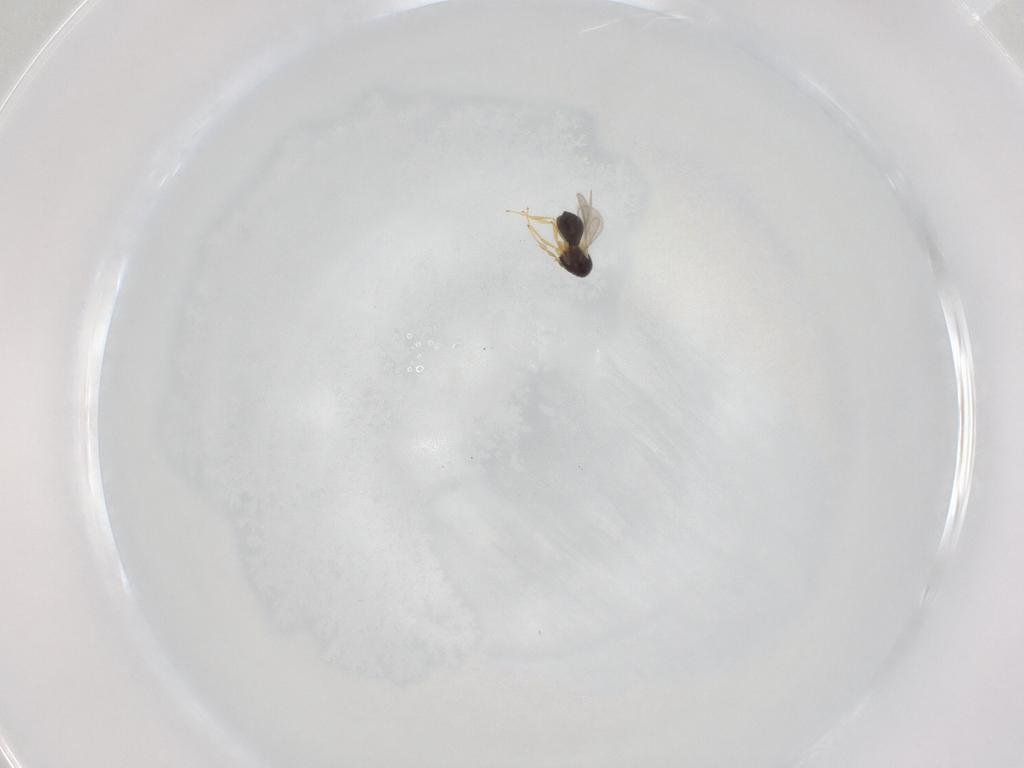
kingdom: Animalia
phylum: Arthropoda
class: Insecta
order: Hymenoptera
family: Scelionidae
